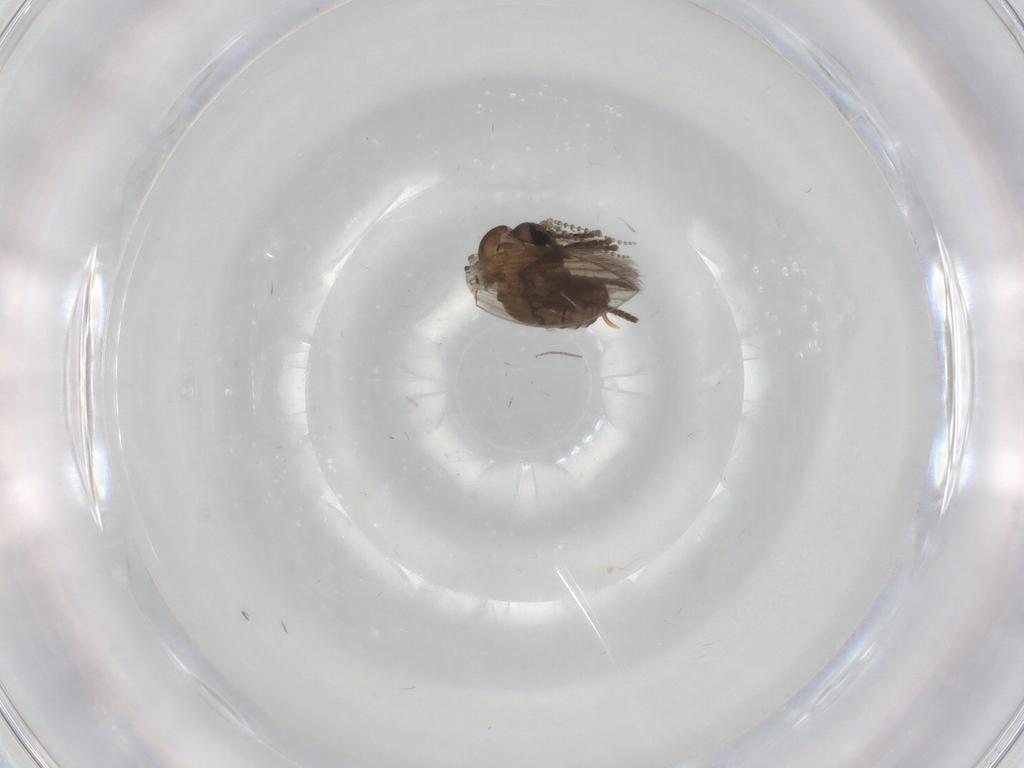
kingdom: Animalia
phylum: Arthropoda
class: Insecta
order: Diptera
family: Cecidomyiidae
